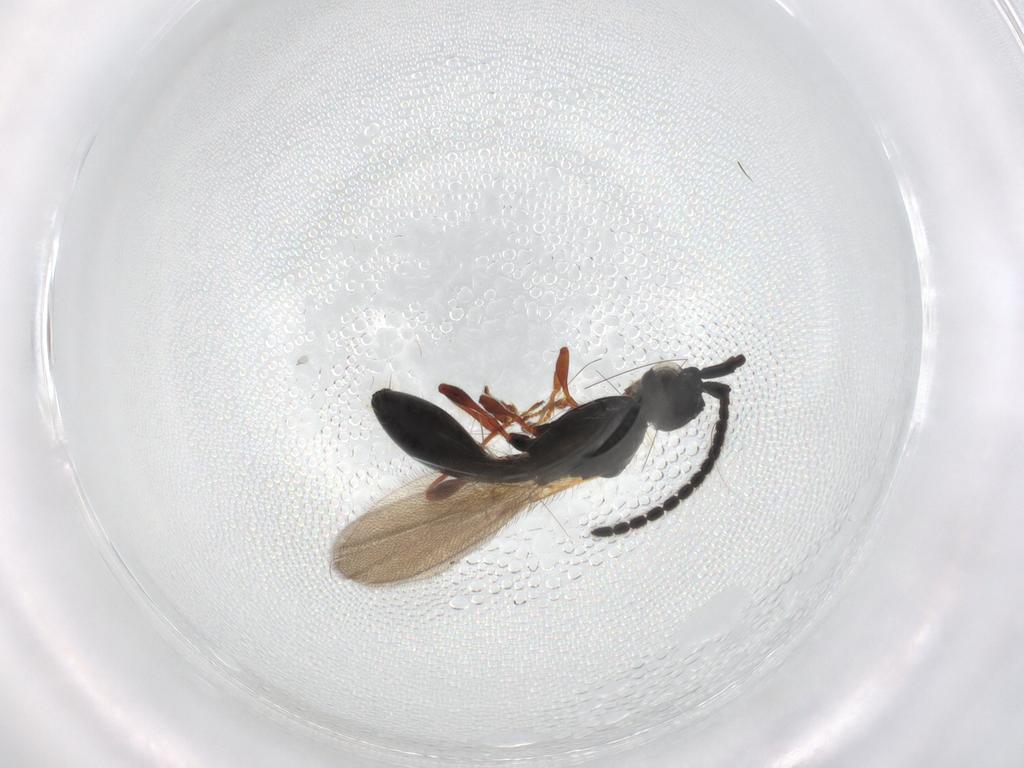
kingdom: Animalia
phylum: Arthropoda
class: Insecta
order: Hymenoptera
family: Diapriidae
